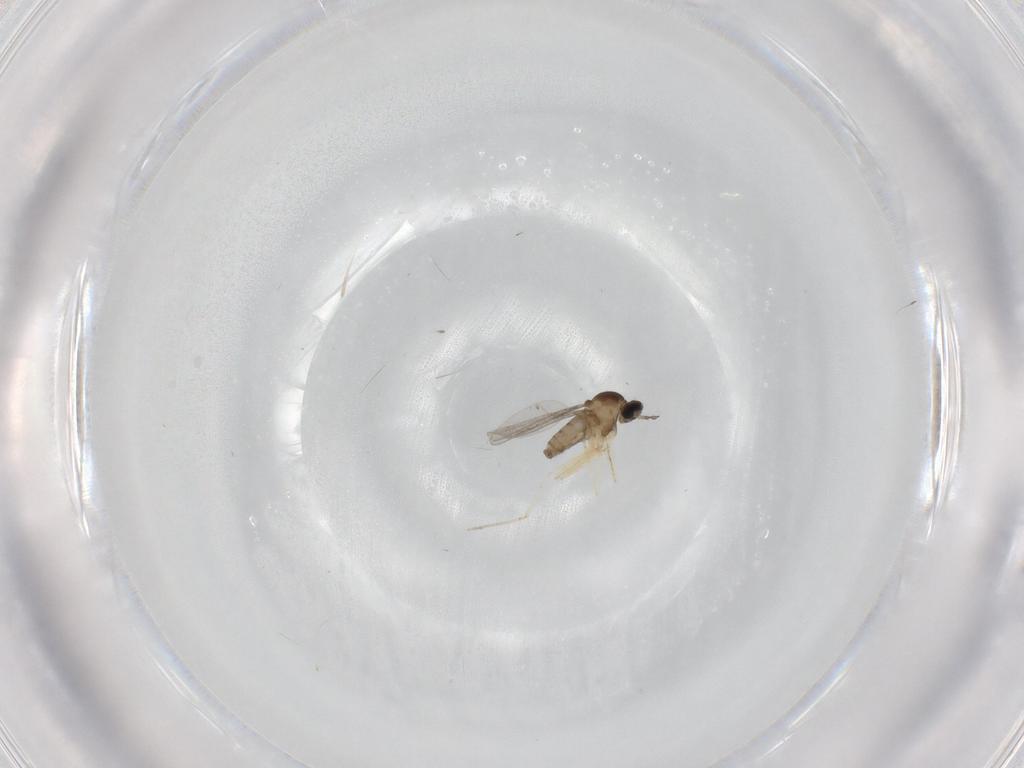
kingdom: Animalia
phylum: Arthropoda
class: Insecta
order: Diptera
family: Cecidomyiidae
